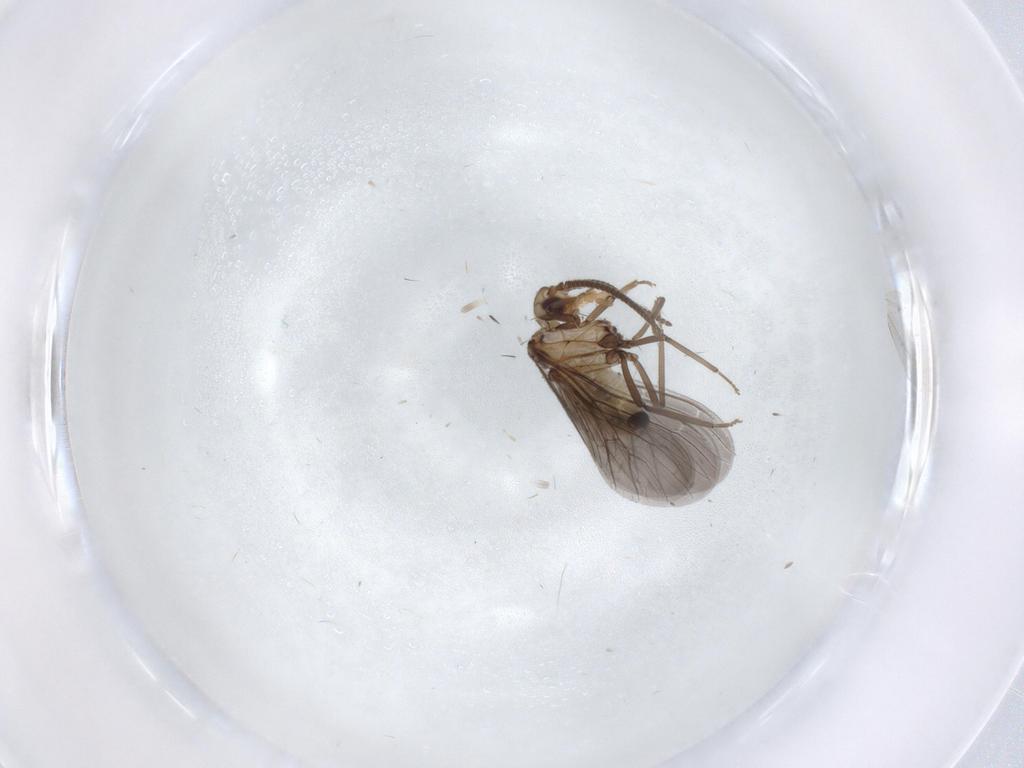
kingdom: Animalia
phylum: Arthropoda
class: Insecta
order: Neuroptera
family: Coniopterygidae
